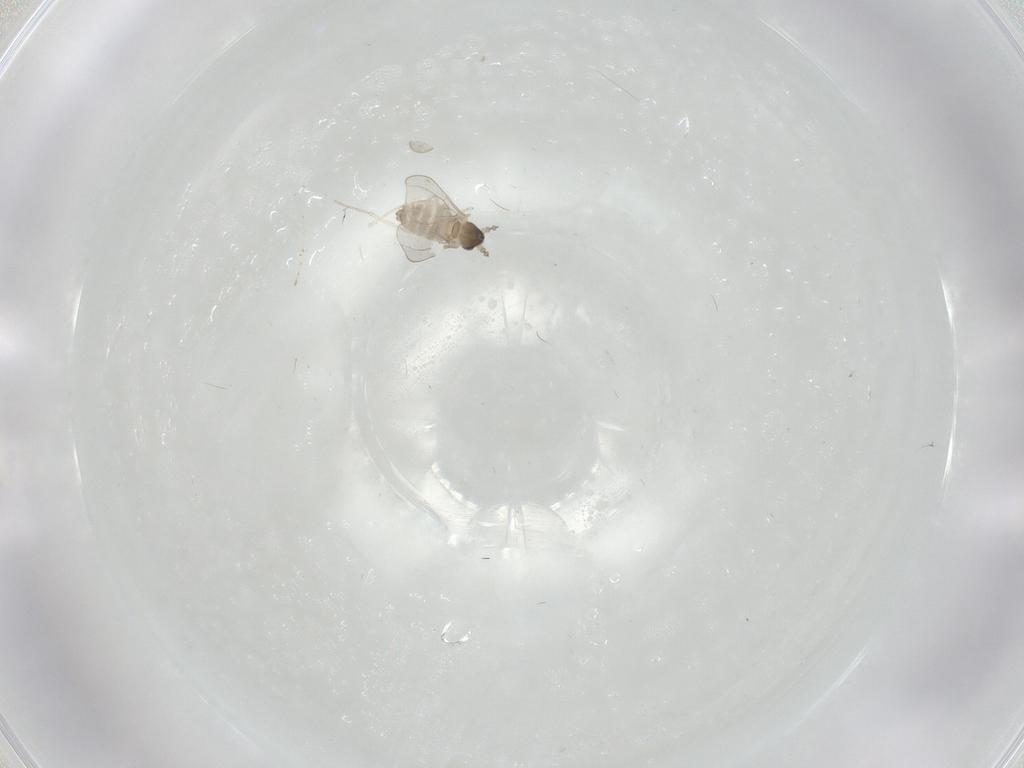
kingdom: Animalia
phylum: Arthropoda
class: Insecta
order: Diptera
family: Cecidomyiidae
